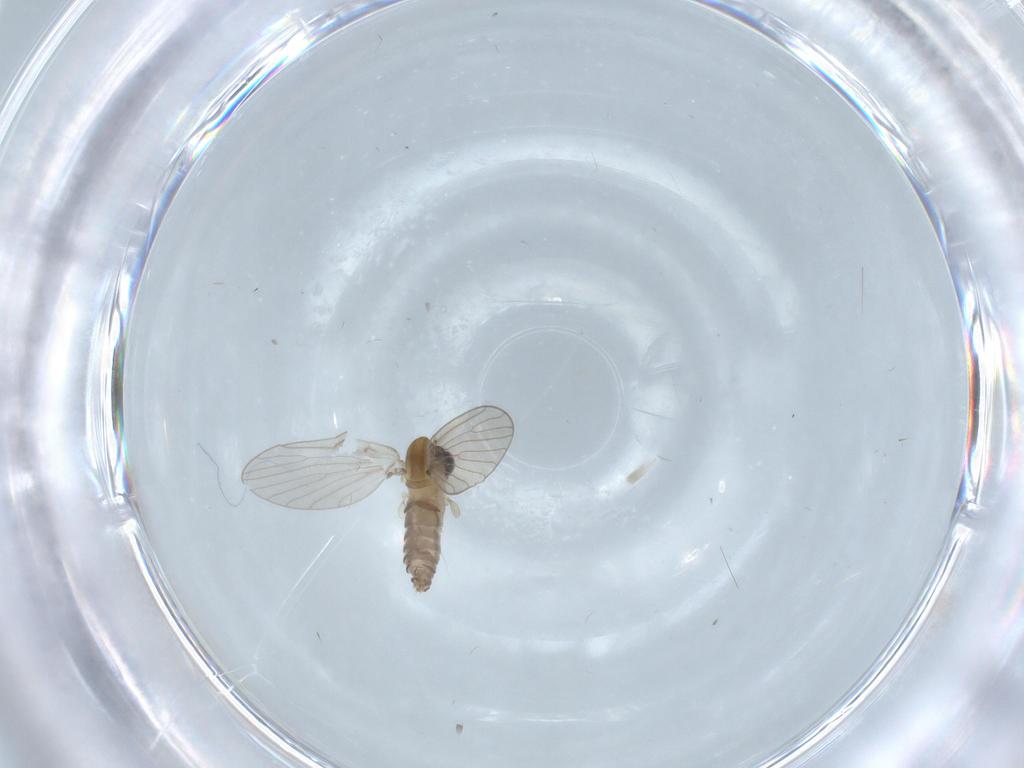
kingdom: Animalia
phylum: Arthropoda
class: Insecta
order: Diptera
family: Psychodidae
